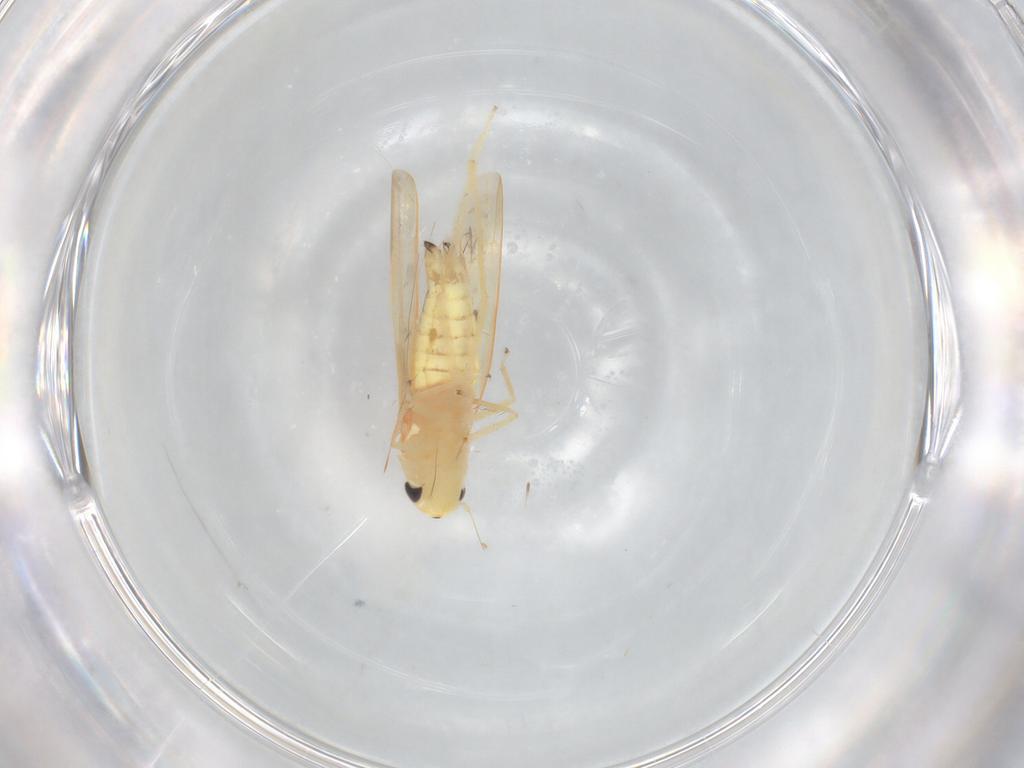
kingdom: Animalia
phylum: Arthropoda
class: Insecta
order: Hemiptera
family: Cicadellidae
